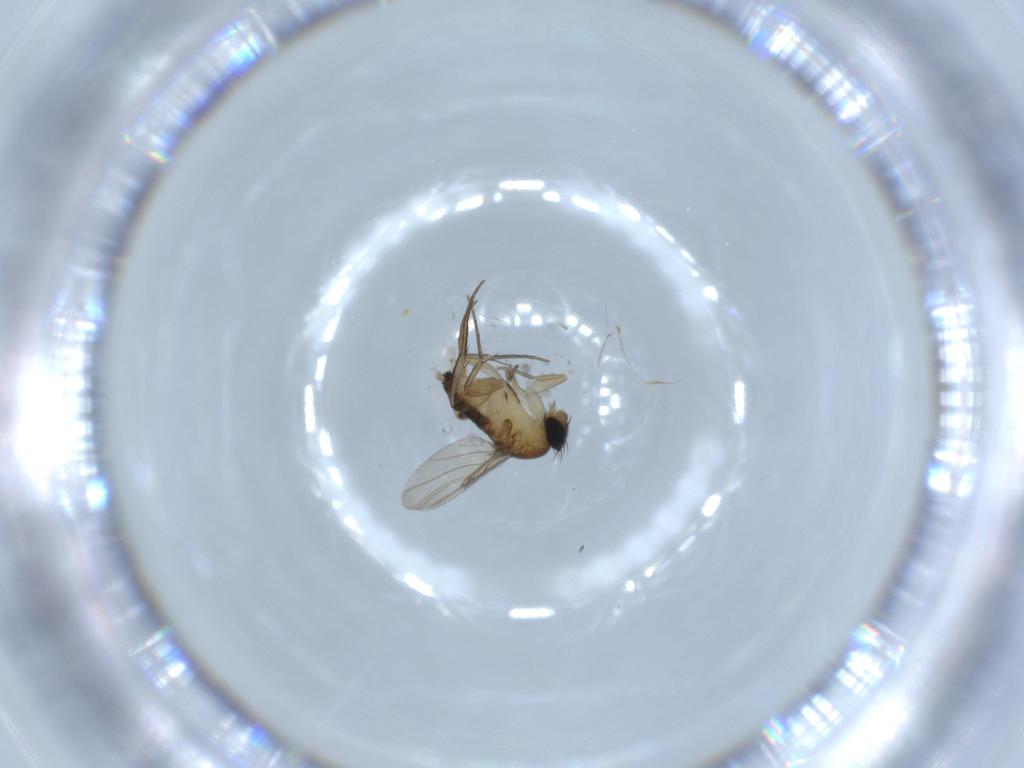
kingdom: Animalia
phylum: Arthropoda
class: Insecta
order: Diptera
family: Phoridae
